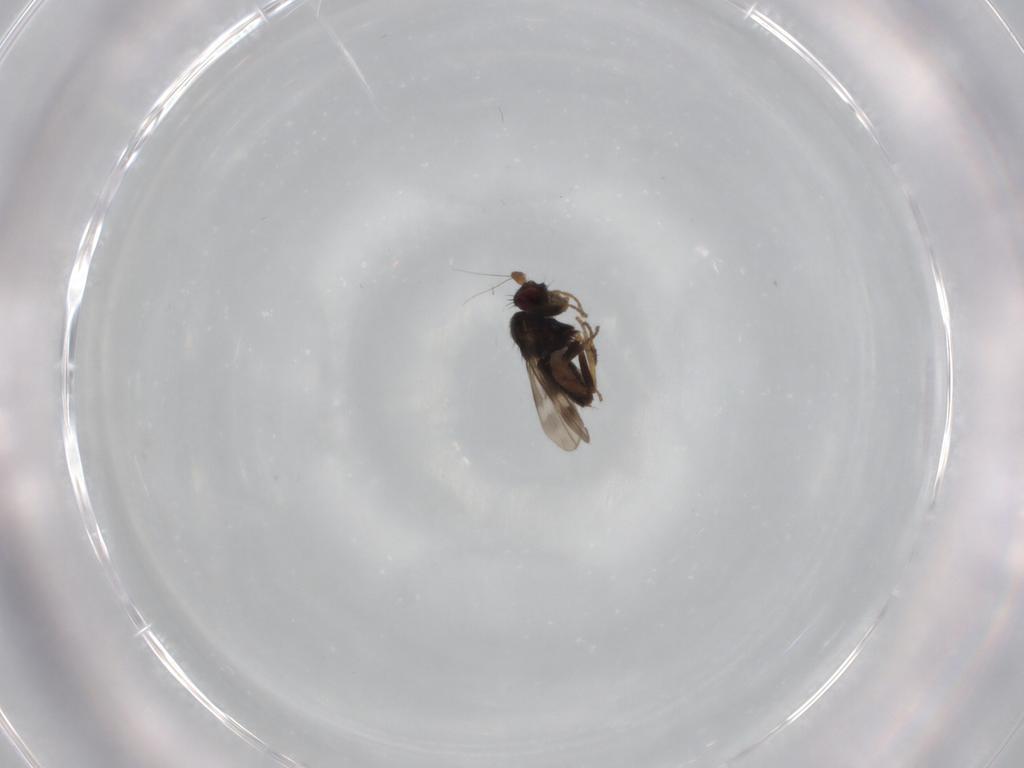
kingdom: Animalia
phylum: Arthropoda
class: Insecta
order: Diptera
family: Sphaeroceridae
